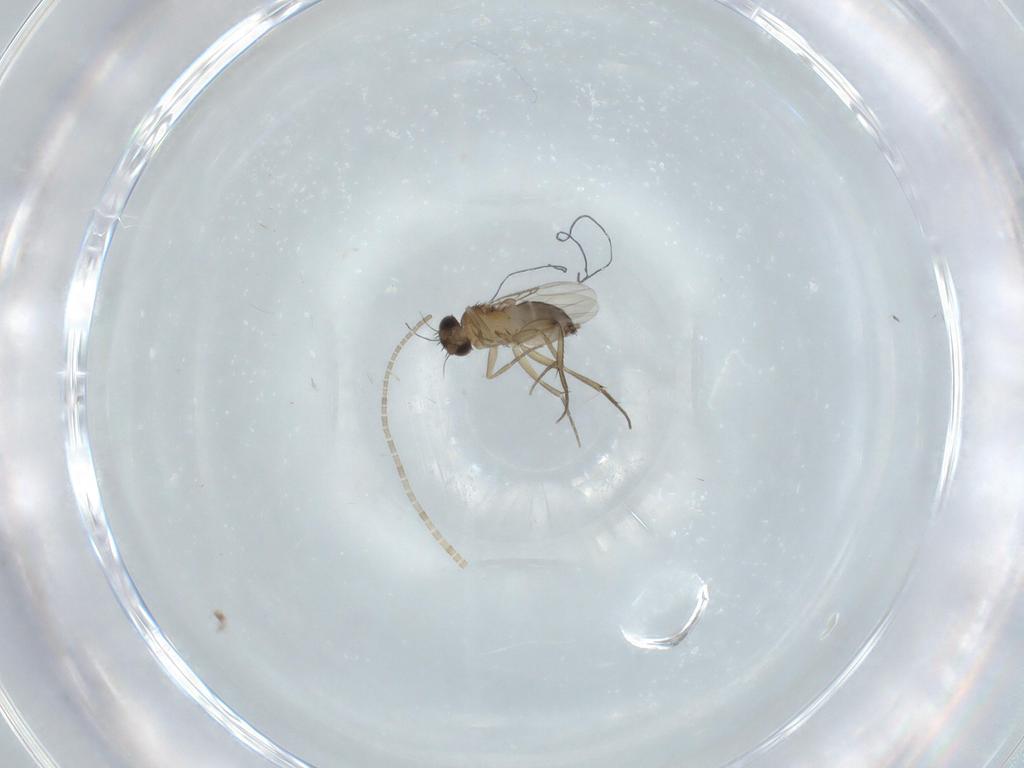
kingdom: Animalia
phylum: Arthropoda
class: Insecta
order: Diptera
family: Phoridae
